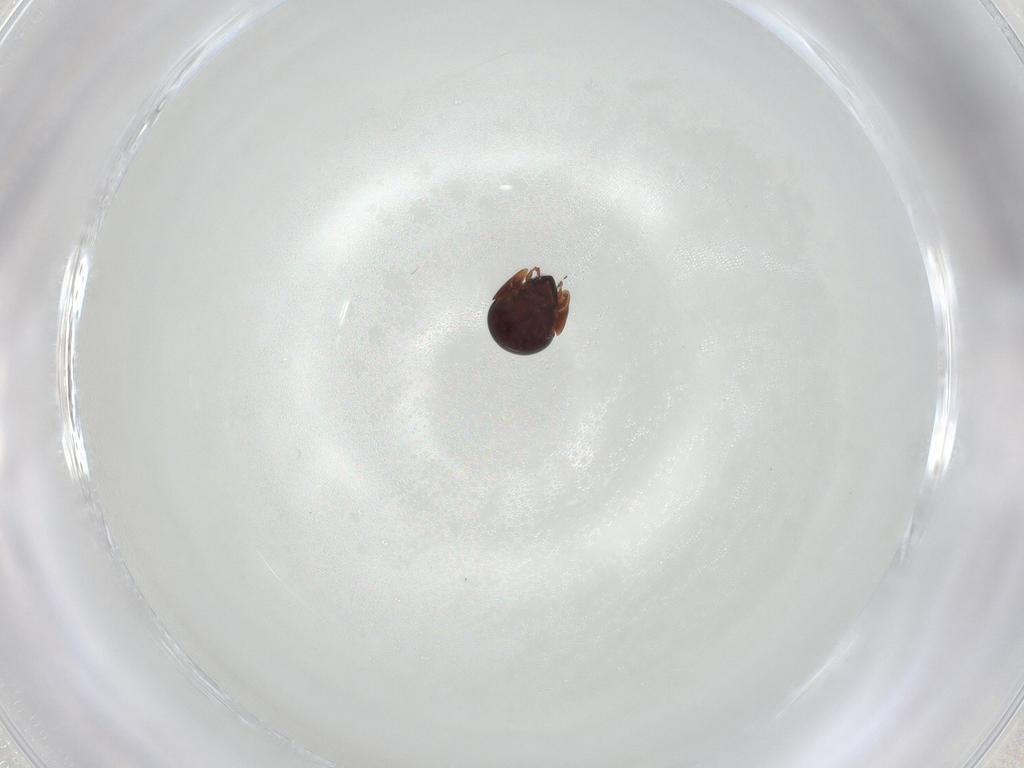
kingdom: Animalia
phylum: Arthropoda
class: Arachnida
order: Sarcoptiformes
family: Galumnidae
